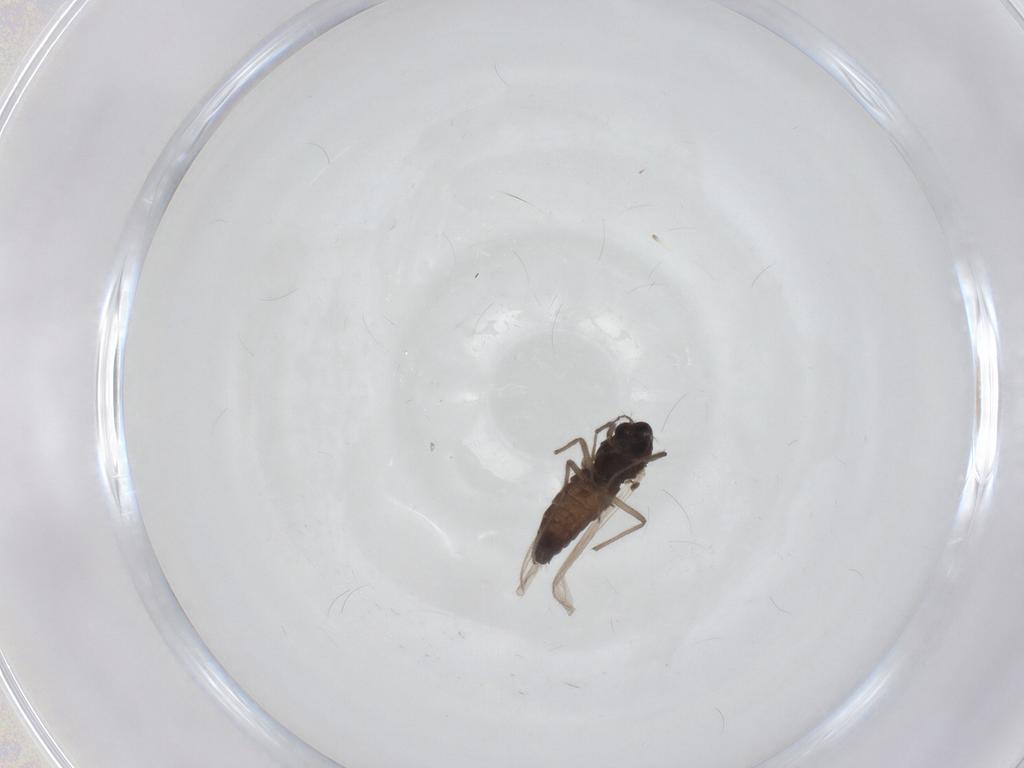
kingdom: Animalia
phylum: Arthropoda
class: Insecta
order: Diptera
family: Chironomidae
